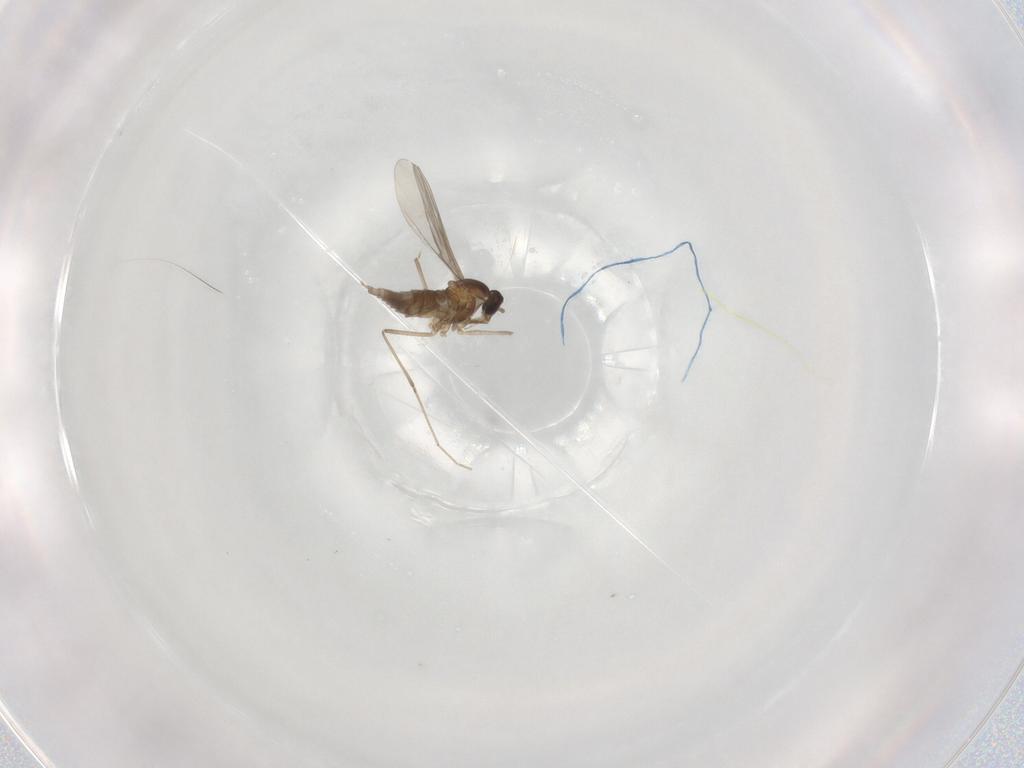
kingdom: Animalia
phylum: Arthropoda
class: Insecta
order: Diptera
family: Cecidomyiidae
